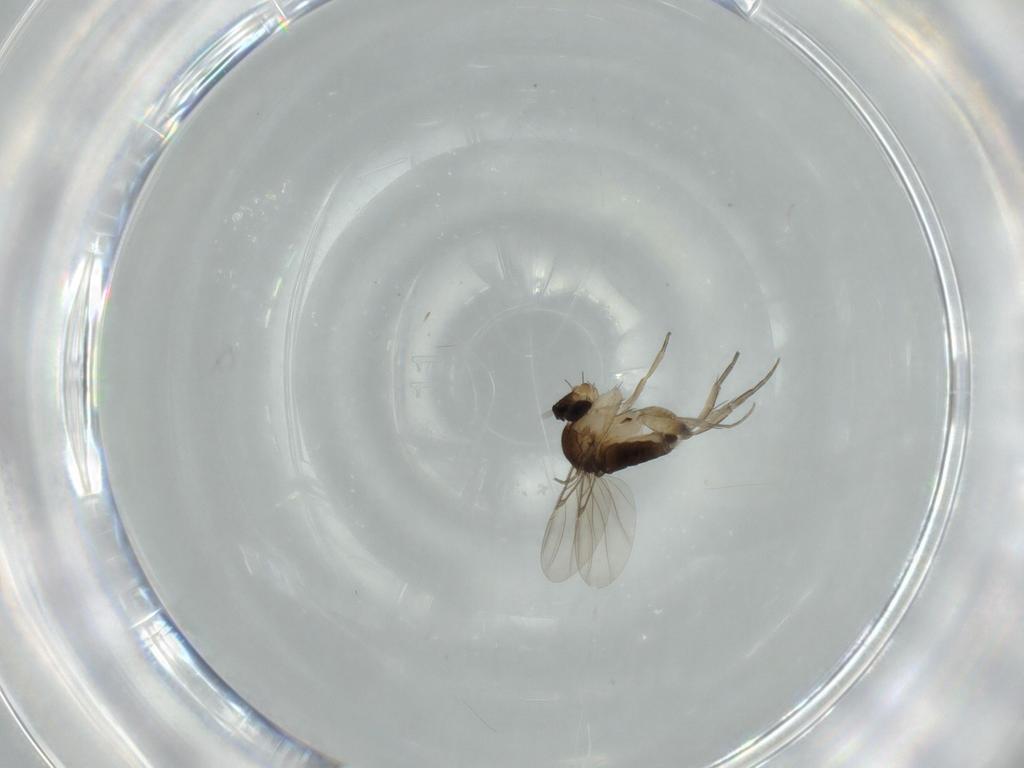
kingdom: Animalia
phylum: Arthropoda
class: Insecta
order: Diptera
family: Phoridae
